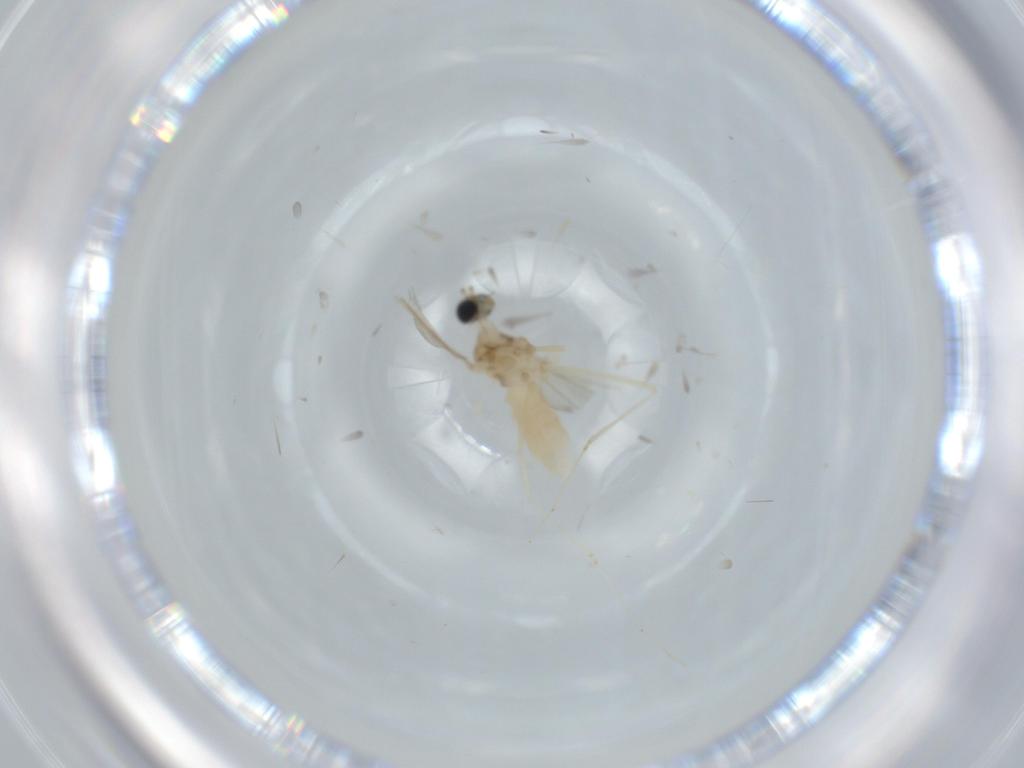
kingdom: Animalia
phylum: Arthropoda
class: Insecta
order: Diptera
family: Cecidomyiidae
